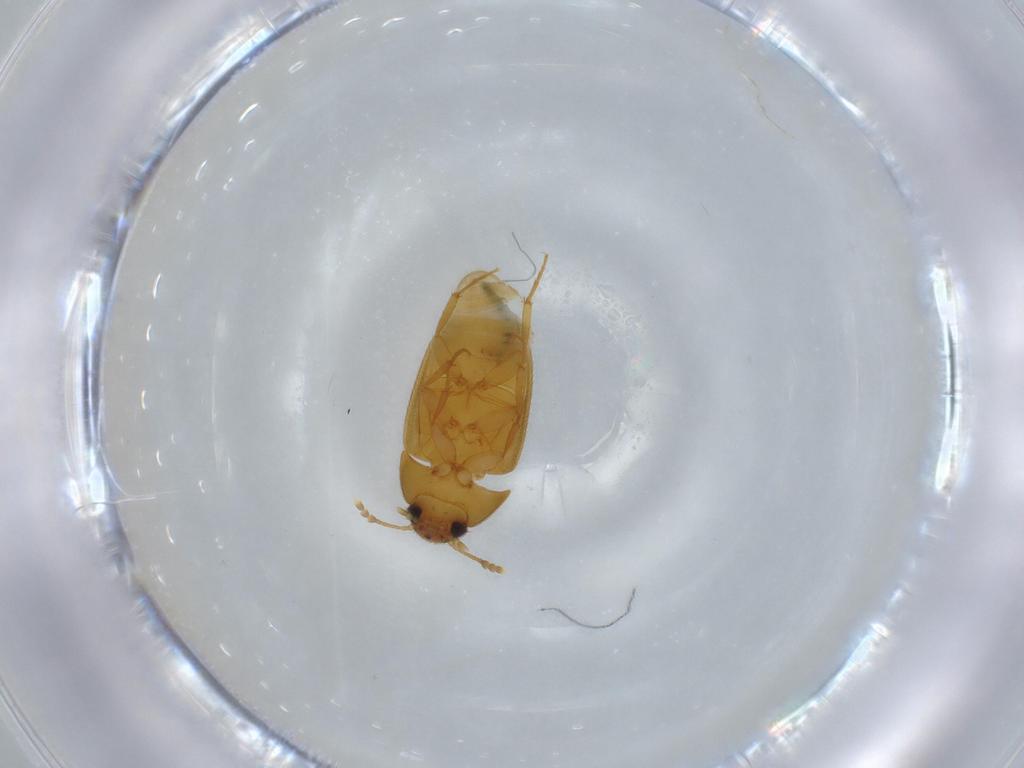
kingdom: Animalia
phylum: Arthropoda
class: Insecta
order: Coleoptera
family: Mycetophagidae
